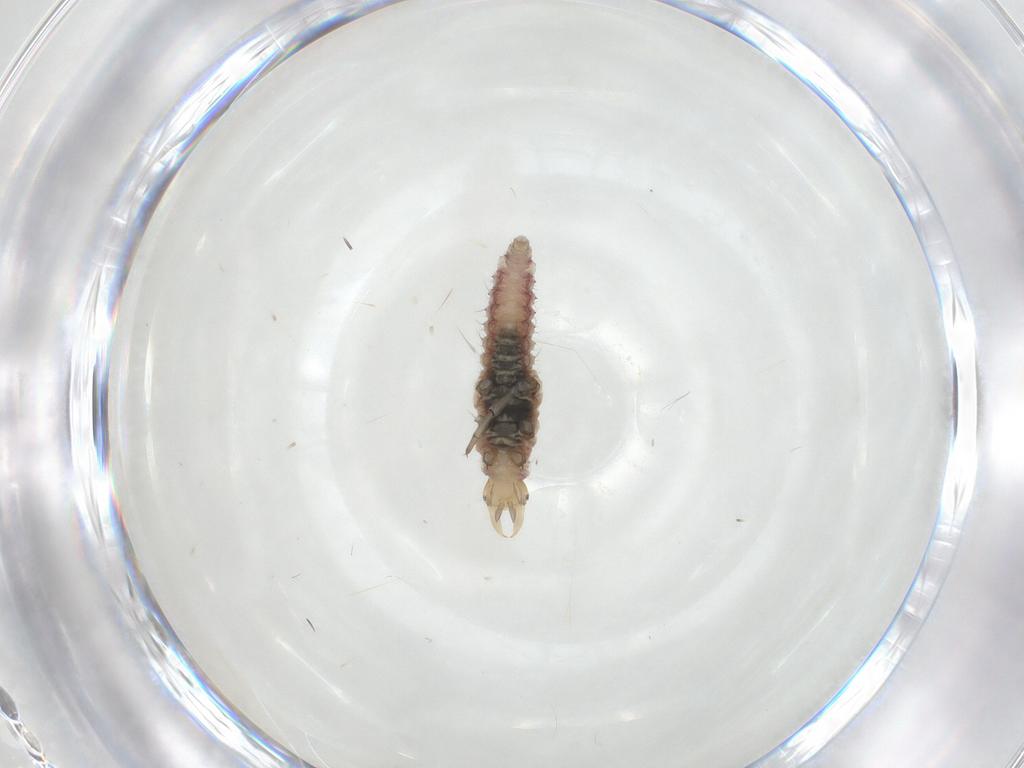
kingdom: Animalia
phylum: Arthropoda
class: Insecta
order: Neuroptera
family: Hemerobiidae
